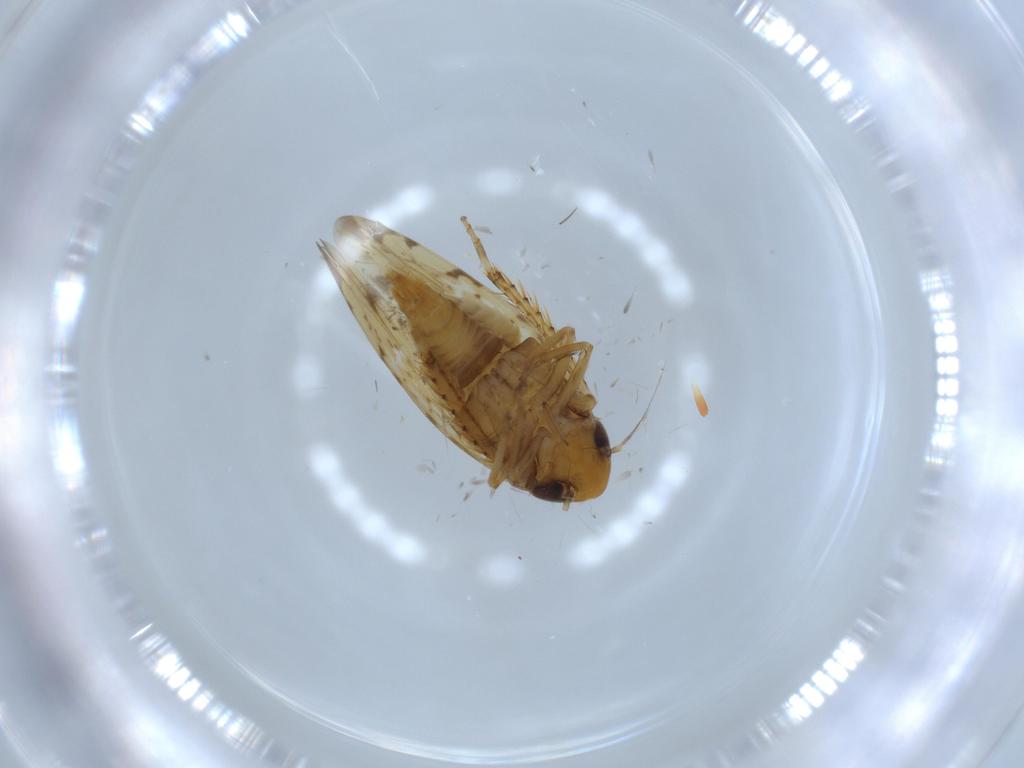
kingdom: Animalia
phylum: Arthropoda
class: Insecta
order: Hemiptera
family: Cicadellidae
